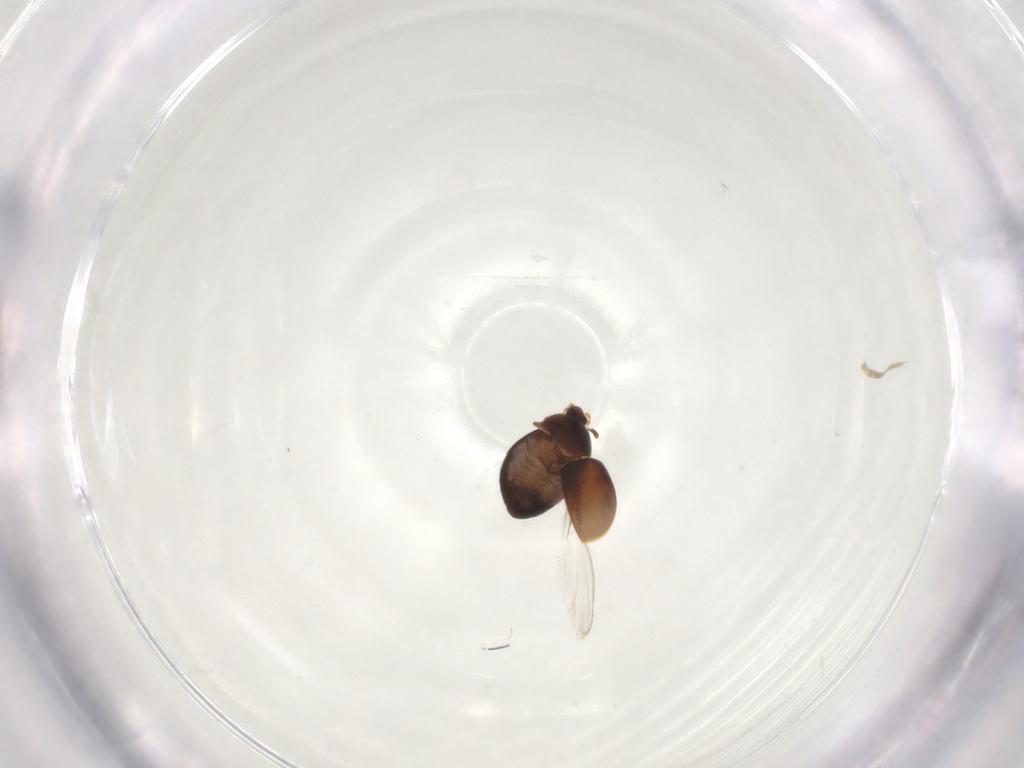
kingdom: Animalia
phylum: Arthropoda
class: Insecta
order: Coleoptera
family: Corylophidae
